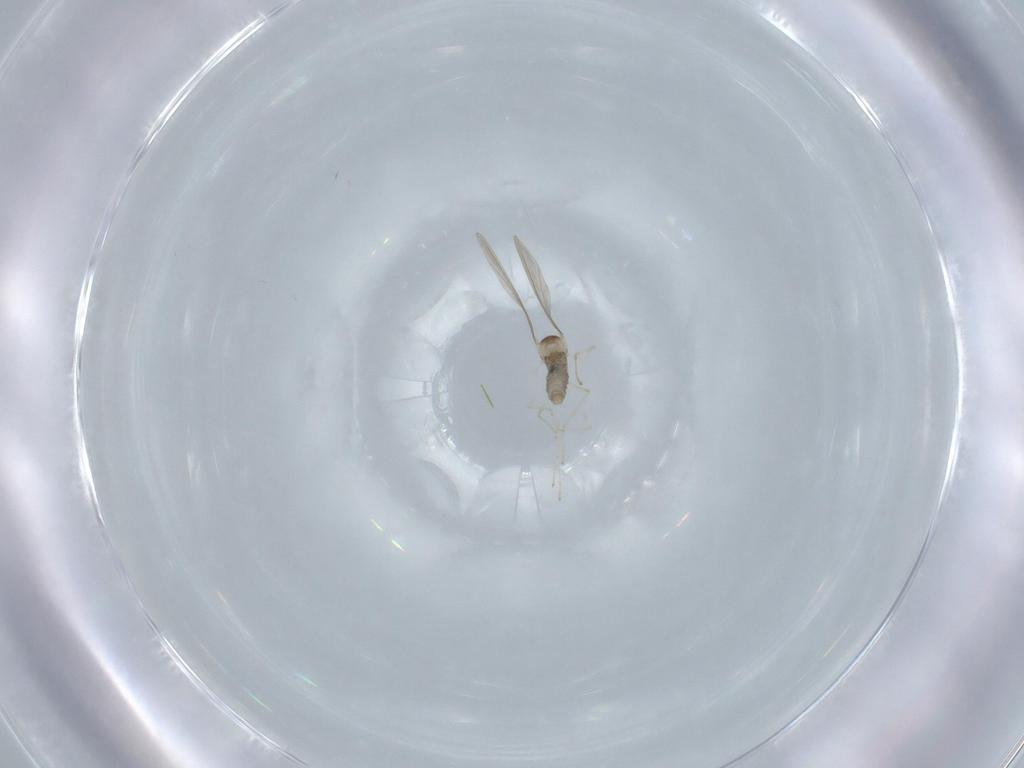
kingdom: Animalia
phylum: Arthropoda
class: Insecta
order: Diptera
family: Cecidomyiidae
